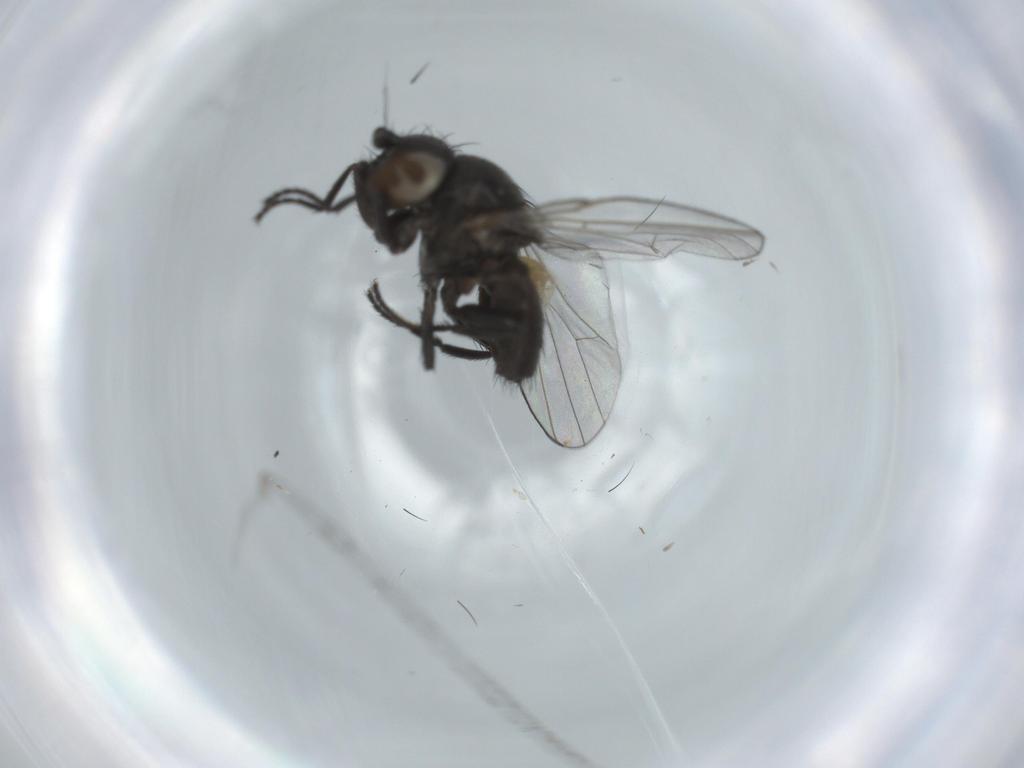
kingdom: Animalia
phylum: Arthropoda
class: Insecta
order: Diptera
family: Milichiidae
